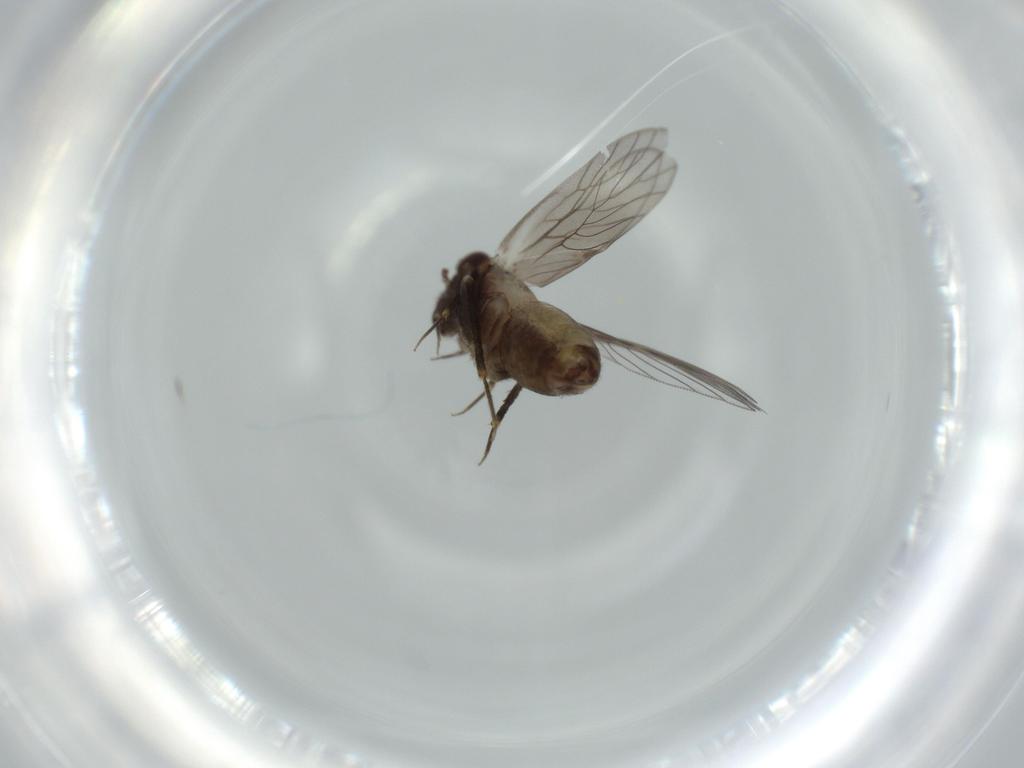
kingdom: Animalia
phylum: Arthropoda
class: Insecta
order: Psocodea
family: Lepidopsocidae
